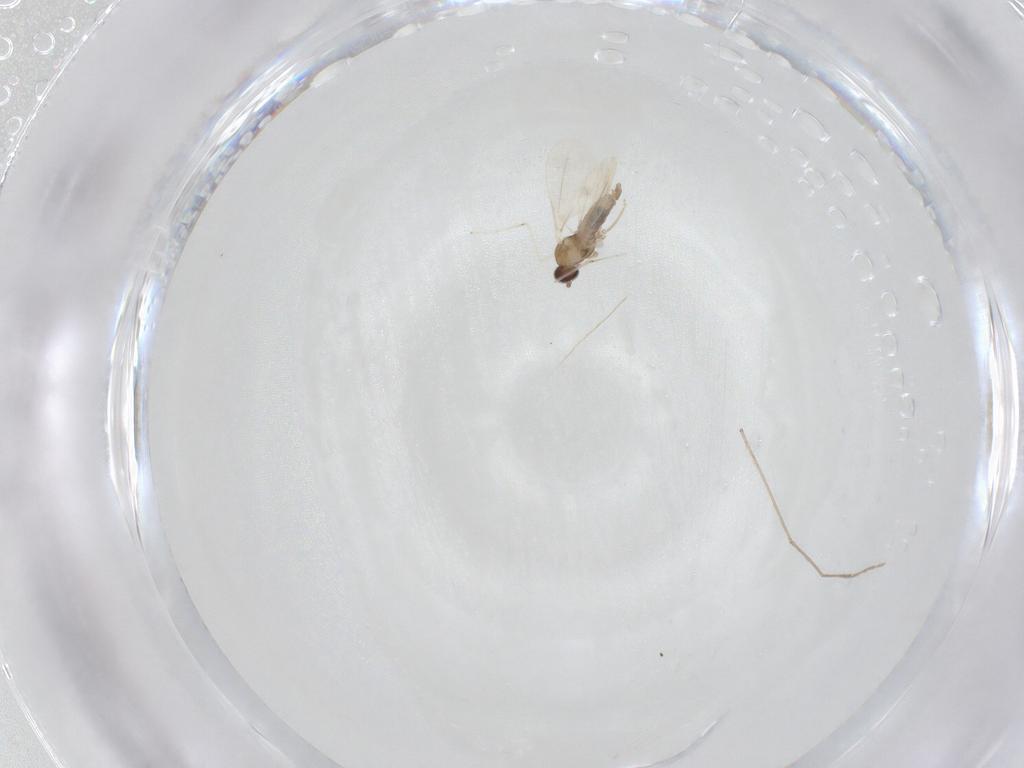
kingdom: Animalia
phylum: Arthropoda
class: Insecta
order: Diptera
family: Cecidomyiidae
